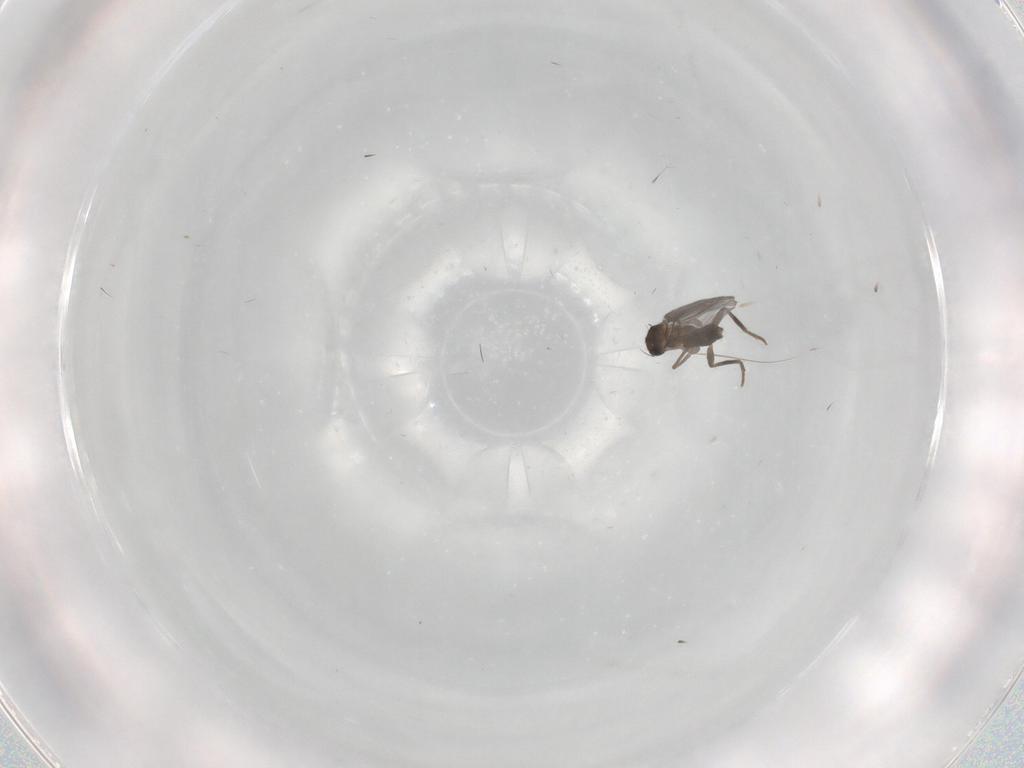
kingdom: Animalia
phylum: Arthropoda
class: Insecta
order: Diptera
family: Phoridae
